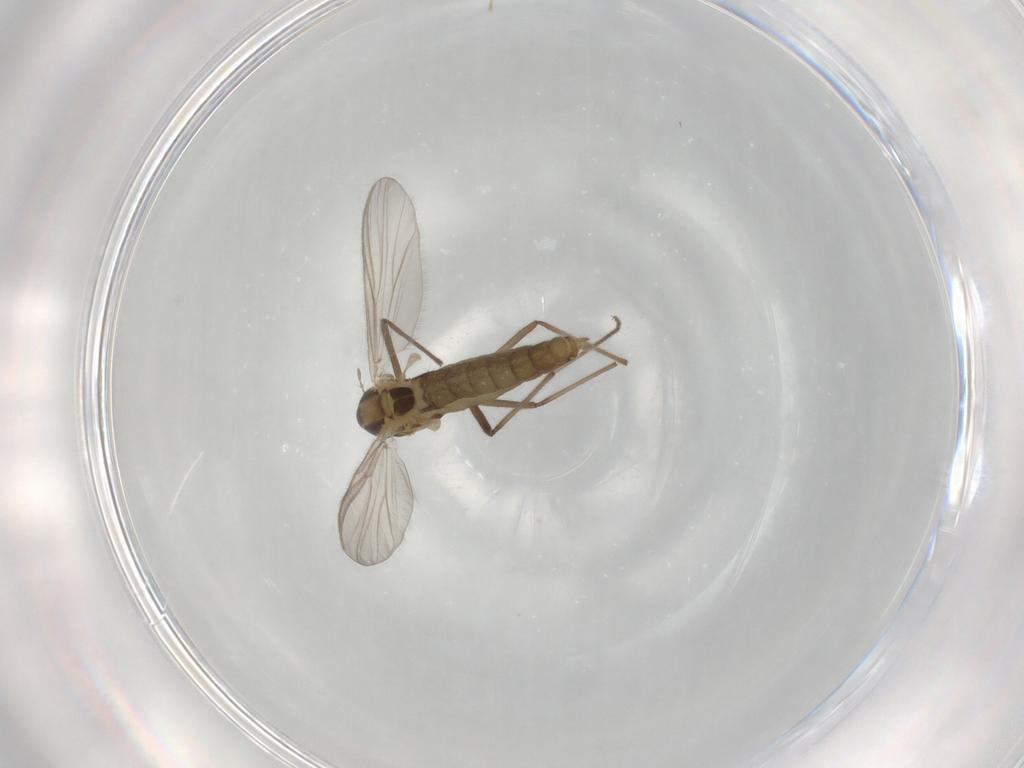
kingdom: Animalia
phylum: Arthropoda
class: Insecta
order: Diptera
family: Chironomidae
